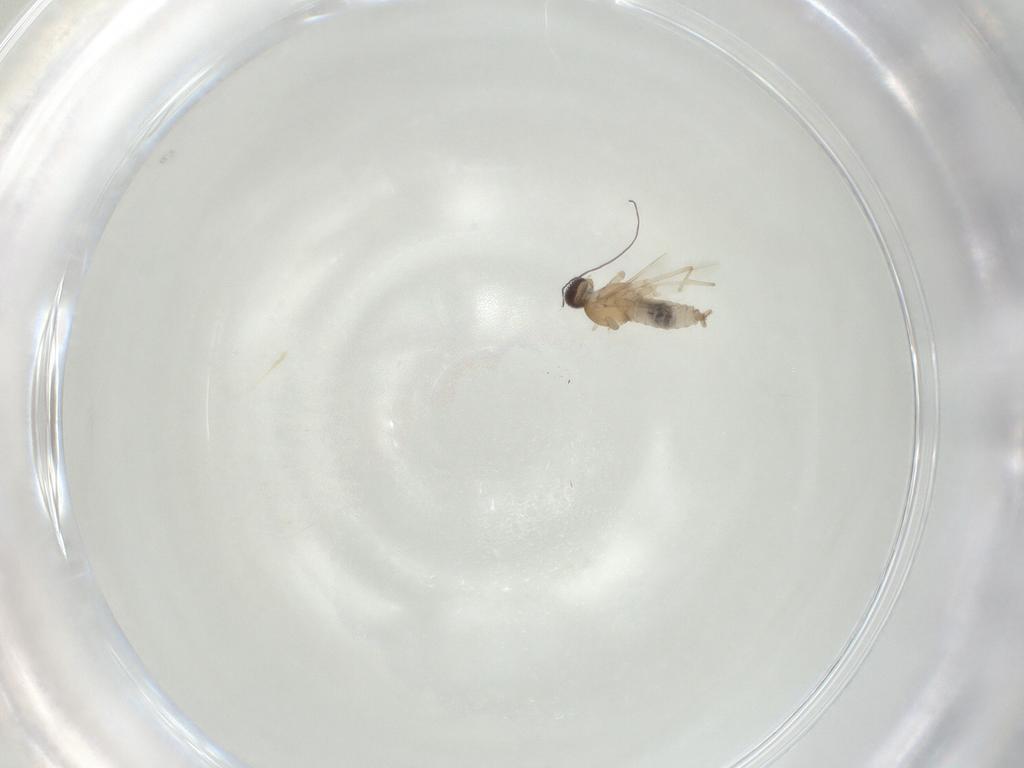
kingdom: Animalia
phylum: Arthropoda
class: Insecta
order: Diptera
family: Cecidomyiidae
